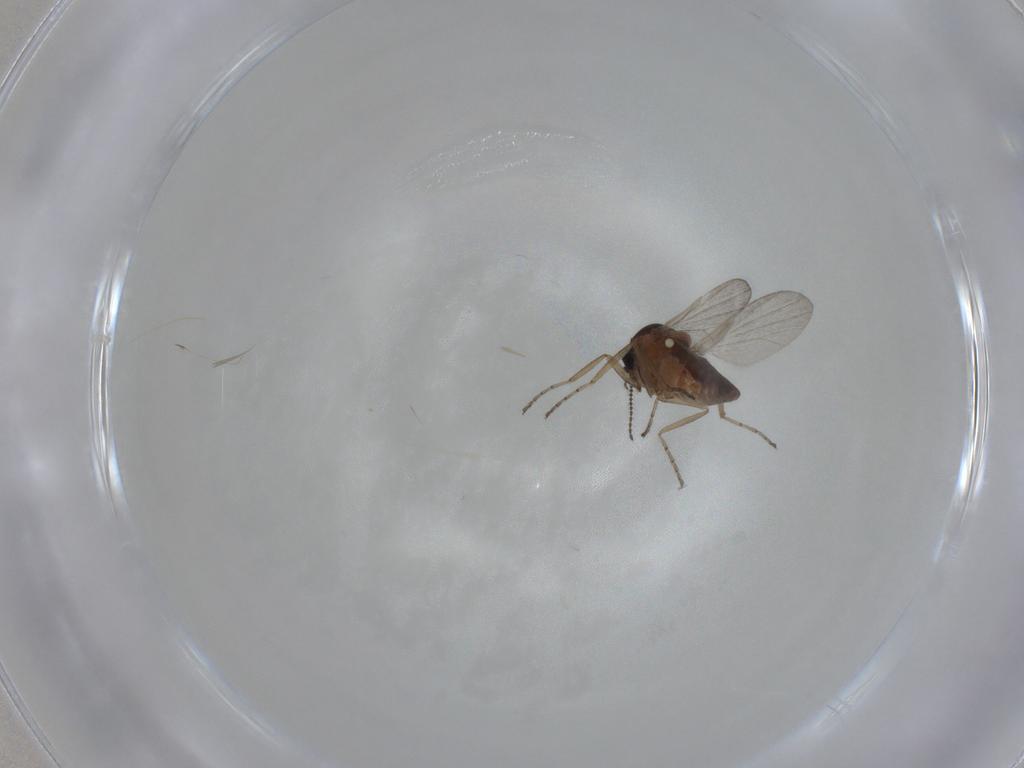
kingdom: Animalia
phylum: Arthropoda
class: Insecta
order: Diptera
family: Ceratopogonidae
